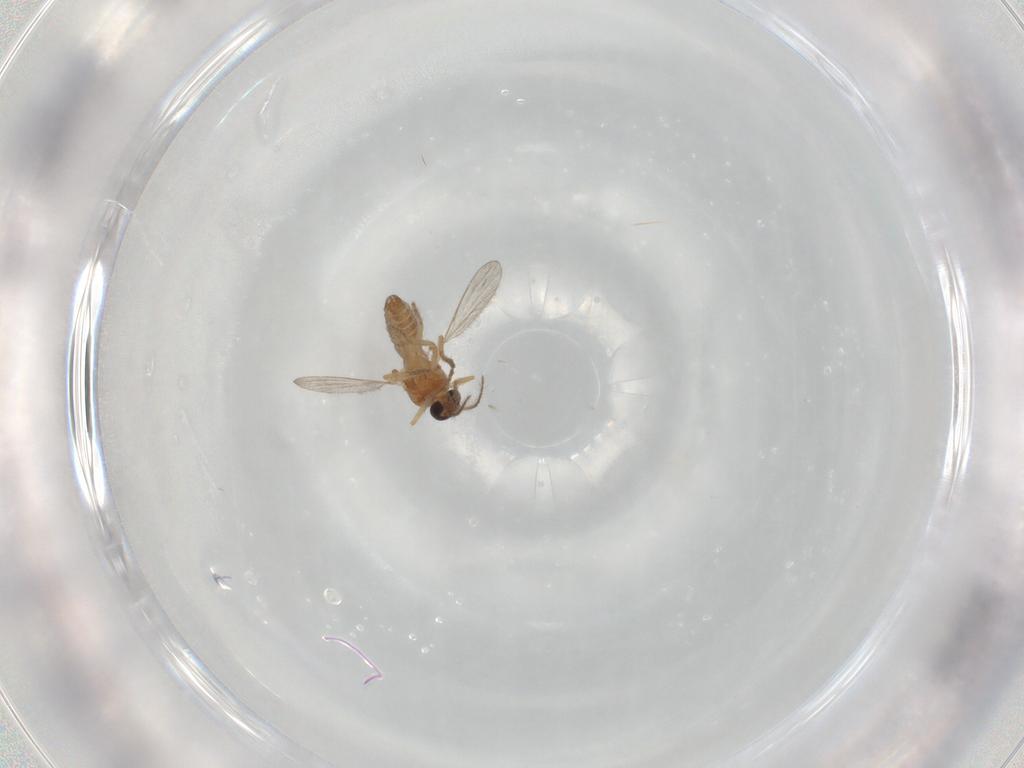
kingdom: Animalia
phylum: Arthropoda
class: Insecta
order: Diptera
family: Ceratopogonidae
